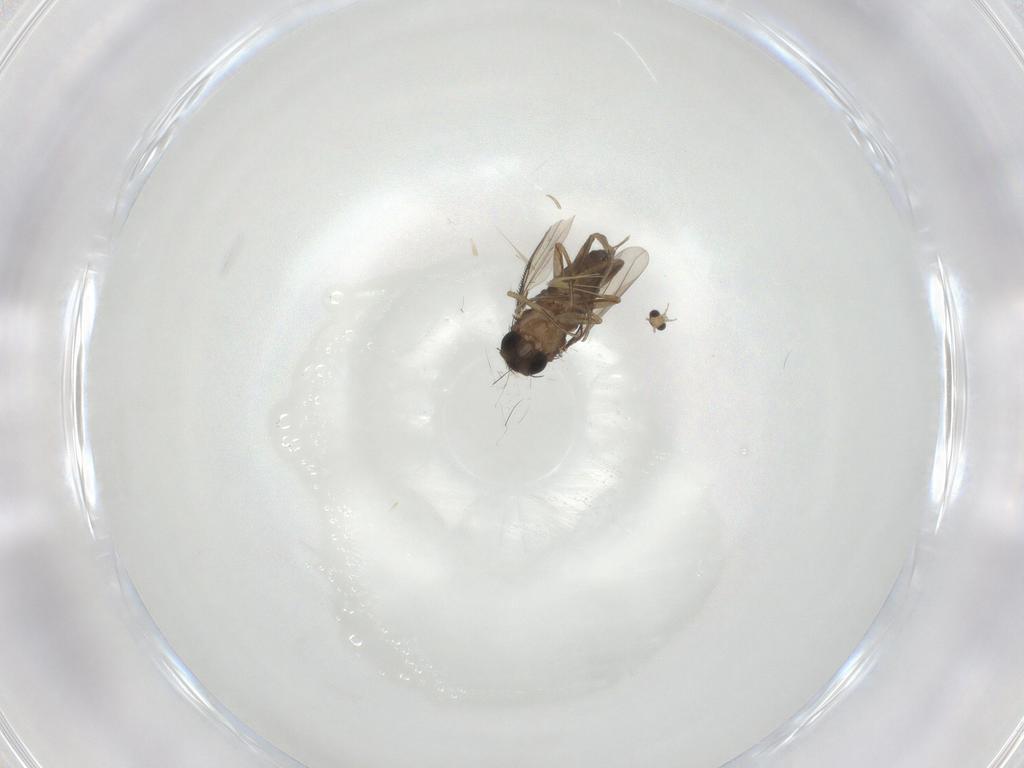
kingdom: Animalia
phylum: Arthropoda
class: Insecta
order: Diptera
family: Chironomidae
